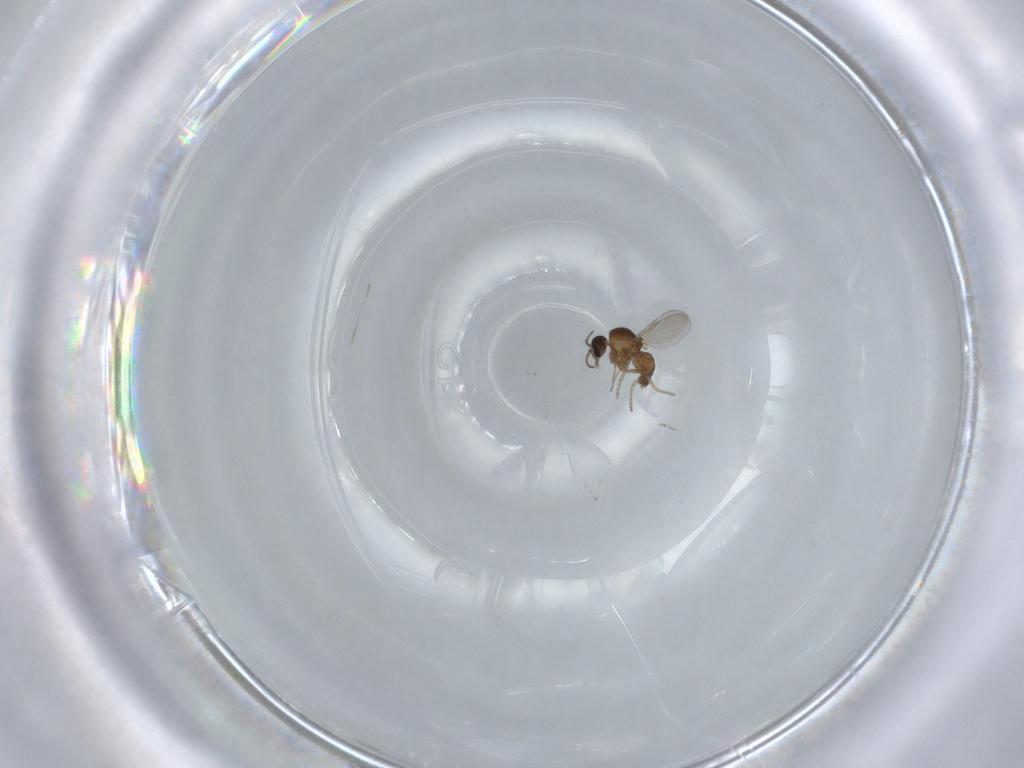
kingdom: Animalia
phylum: Arthropoda
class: Insecta
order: Diptera
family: Ceratopogonidae
